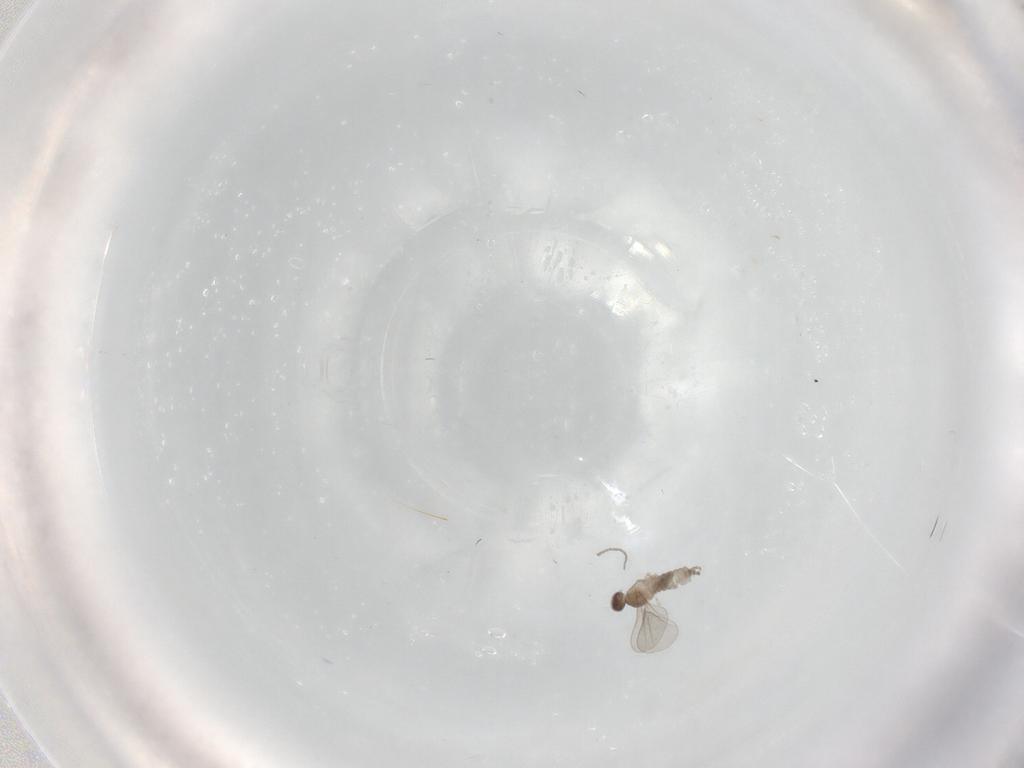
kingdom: Animalia
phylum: Arthropoda
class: Insecta
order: Diptera
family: Cecidomyiidae
